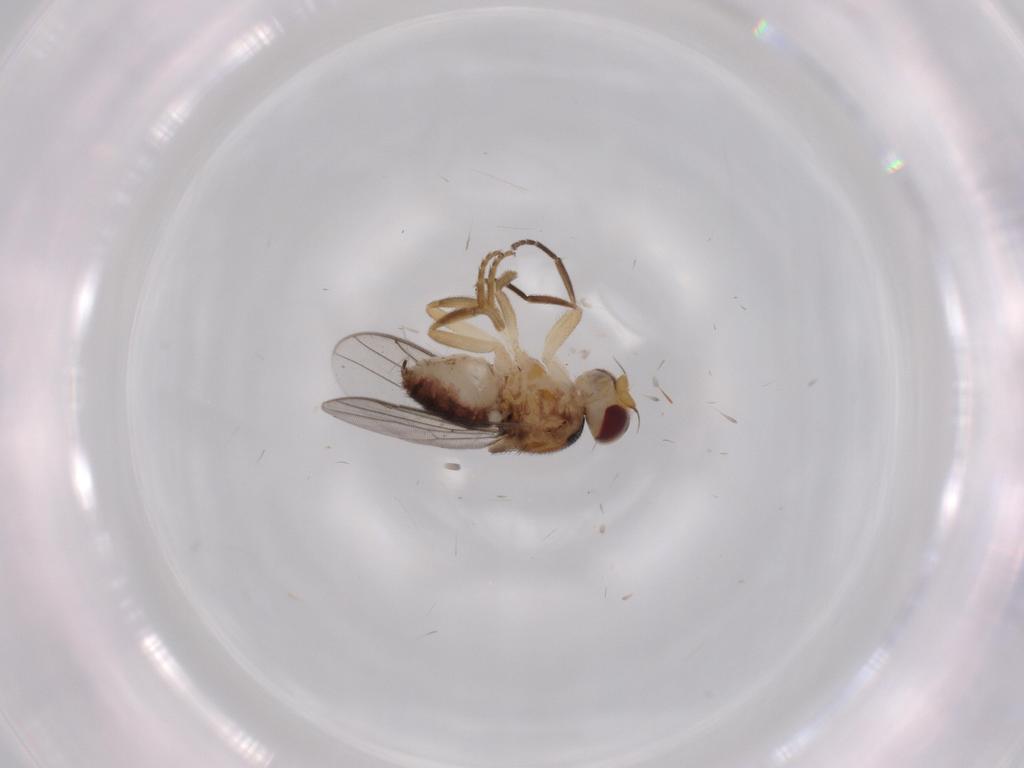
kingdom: Animalia
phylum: Arthropoda
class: Insecta
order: Diptera
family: Chloropidae
